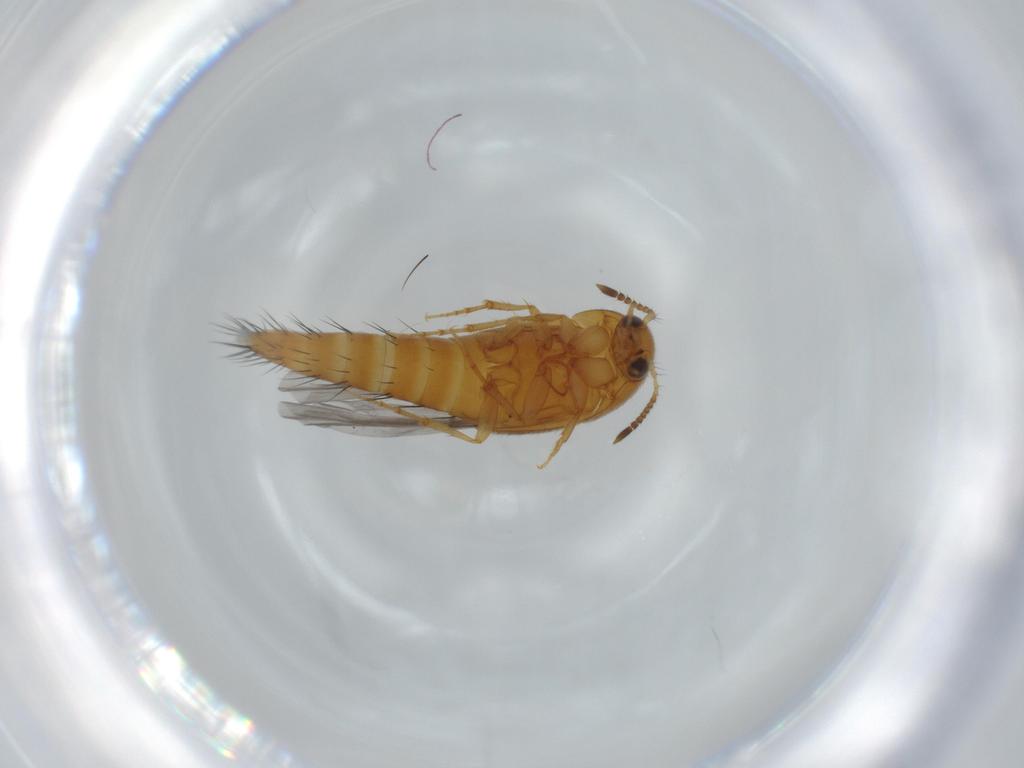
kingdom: Animalia
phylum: Arthropoda
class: Insecta
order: Coleoptera
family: Staphylinidae
